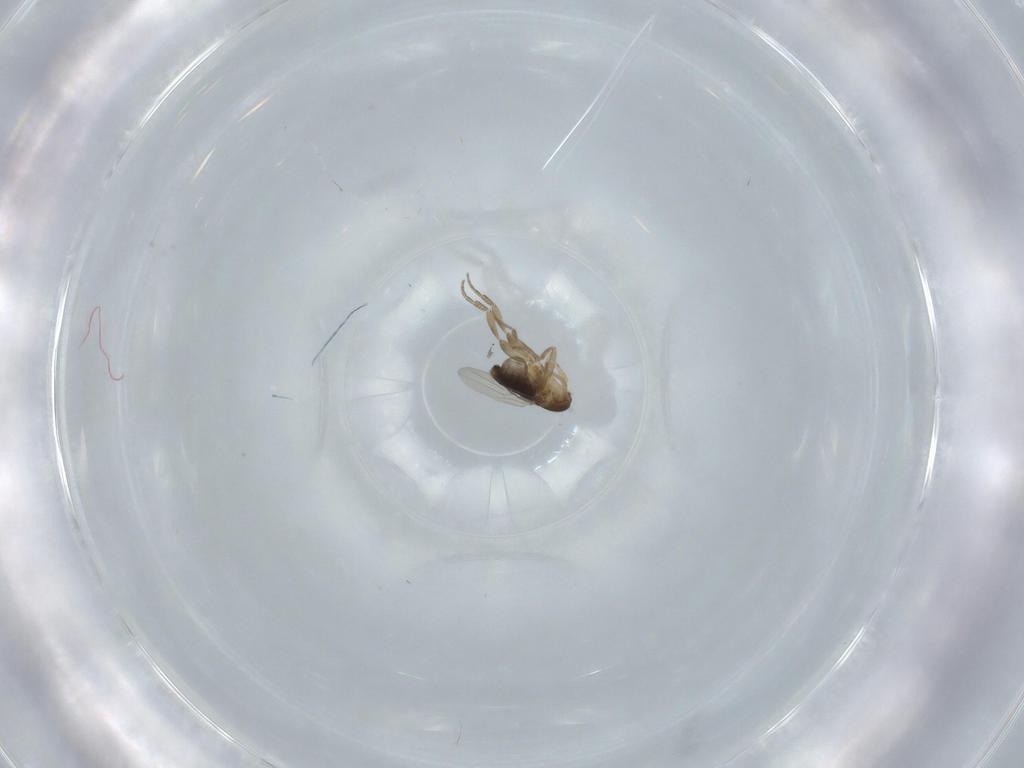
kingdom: Animalia
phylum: Arthropoda
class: Insecta
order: Diptera
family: Phoridae
